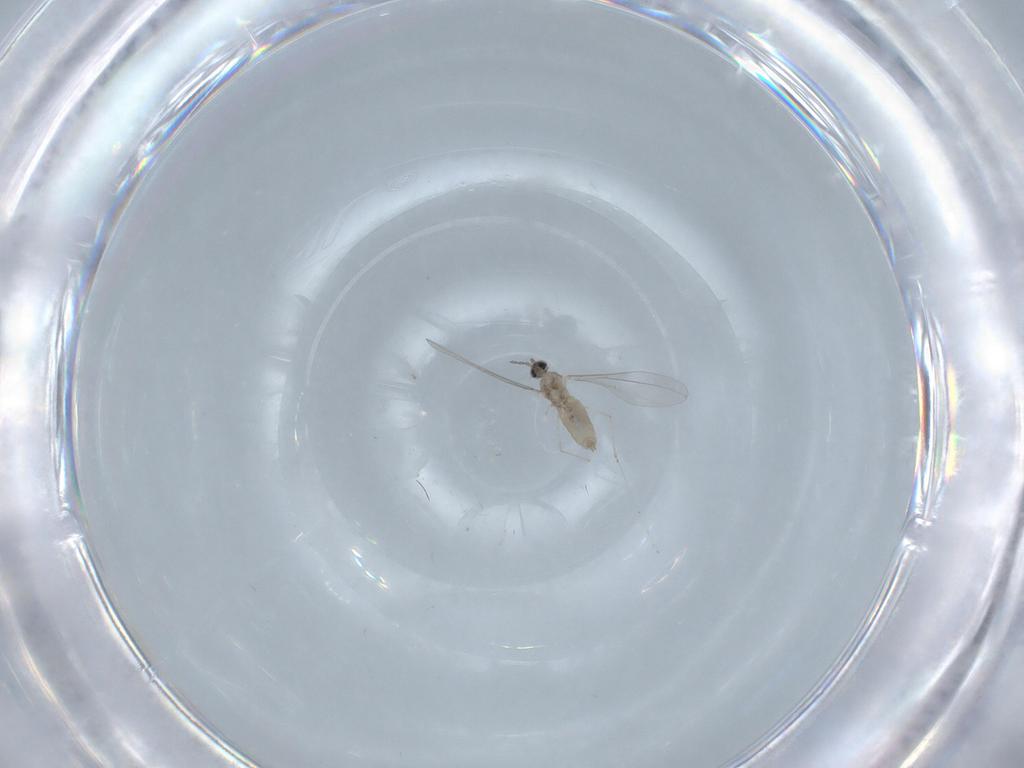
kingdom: Animalia
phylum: Arthropoda
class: Insecta
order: Diptera
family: Cecidomyiidae
